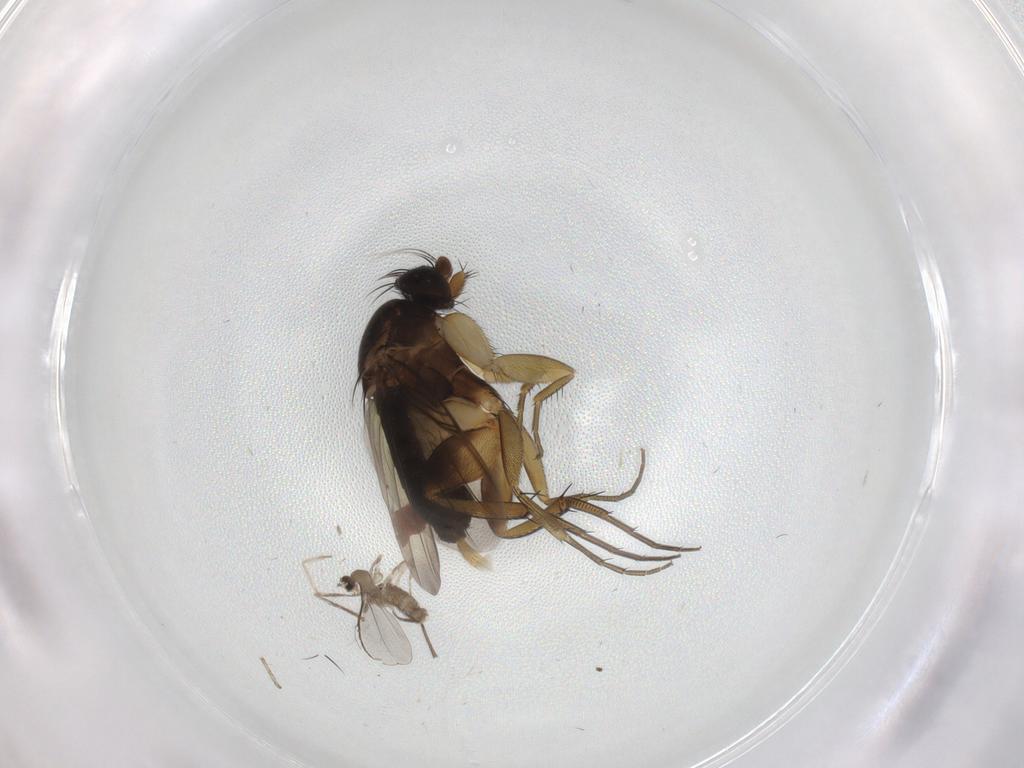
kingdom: Animalia
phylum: Arthropoda
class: Insecta
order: Diptera
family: Cecidomyiidae
